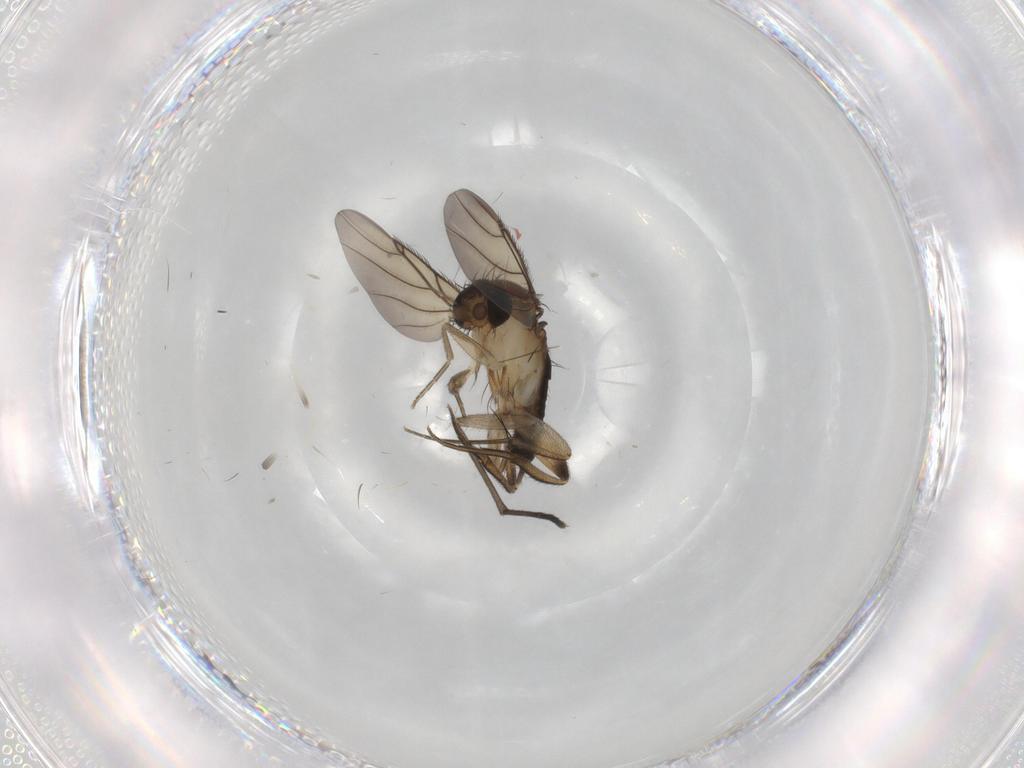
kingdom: Animalia
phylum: Arthropoda
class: Insecta
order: Diptera
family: Sciaridae
